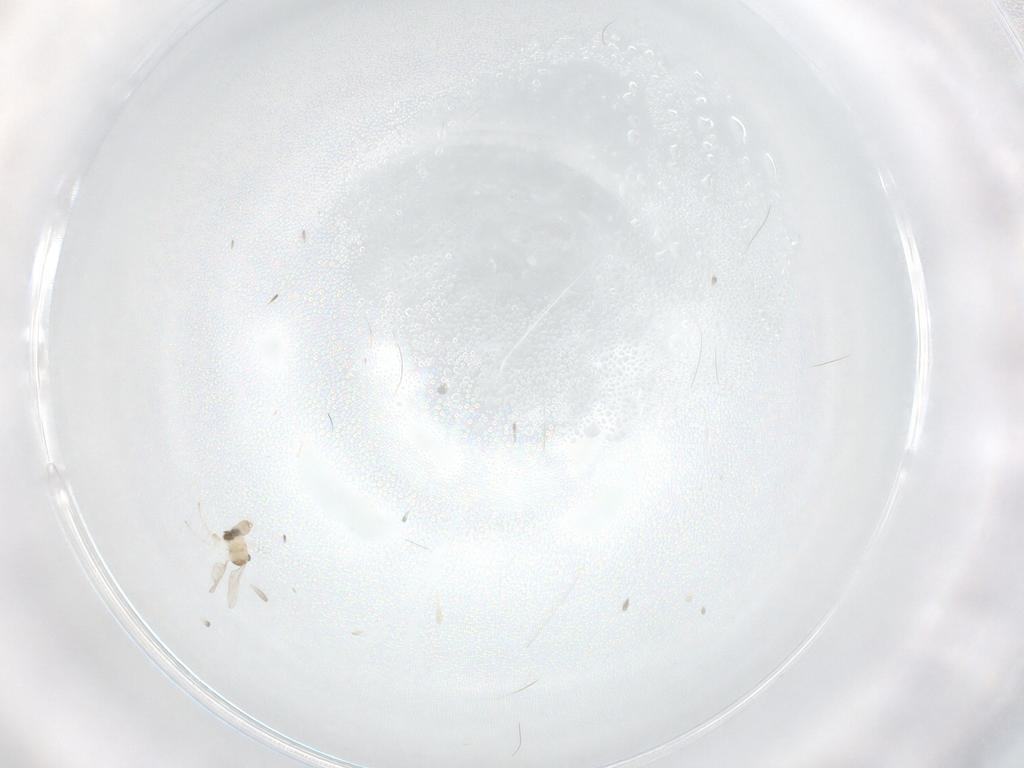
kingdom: Animalia
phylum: Arthropoda
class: Insecta
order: Diptera
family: Cecidomyiidae
